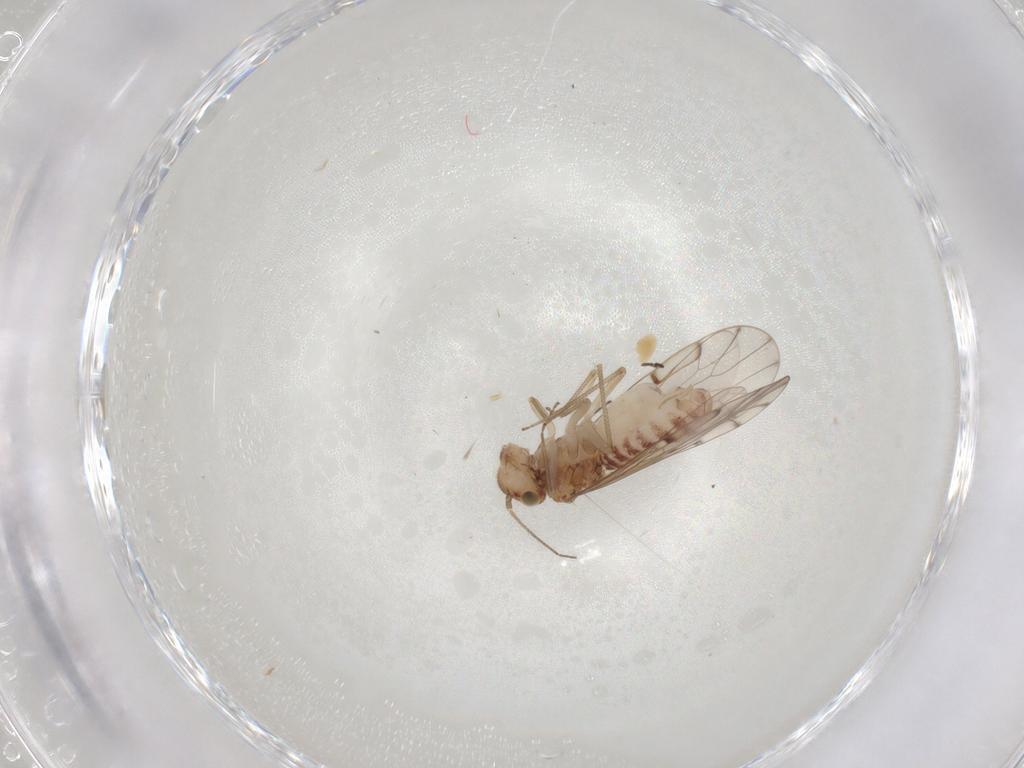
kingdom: Animalia
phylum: Arthropoda
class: Insecta
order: Lepidoptera
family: Gelechiidae
